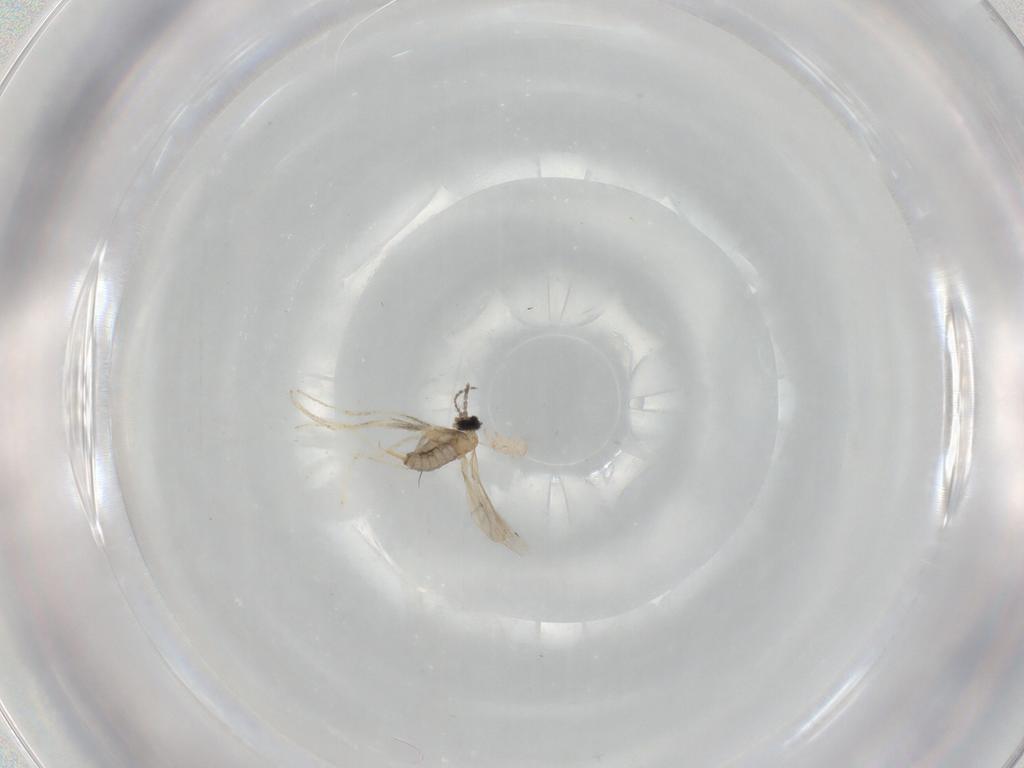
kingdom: Animalia
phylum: Arthropoda
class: Insecta
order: Diptera
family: Cecidomyiidae
